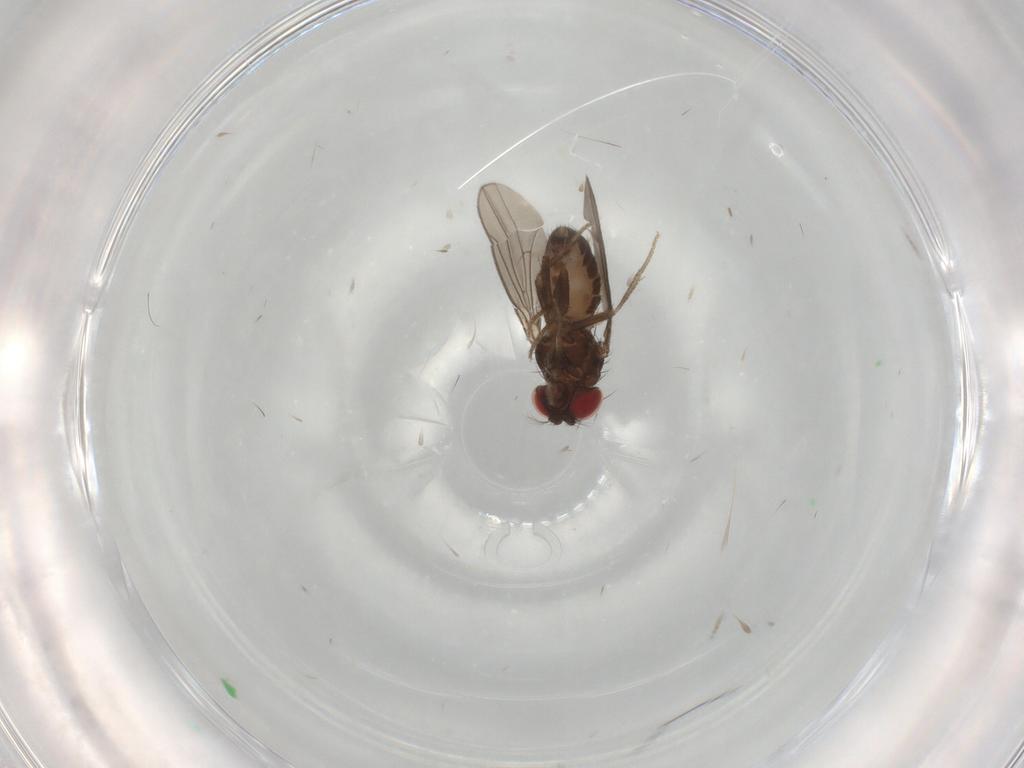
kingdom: Animalia
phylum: Arthropoda
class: Insecta
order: Diptera
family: Drosophilidae
